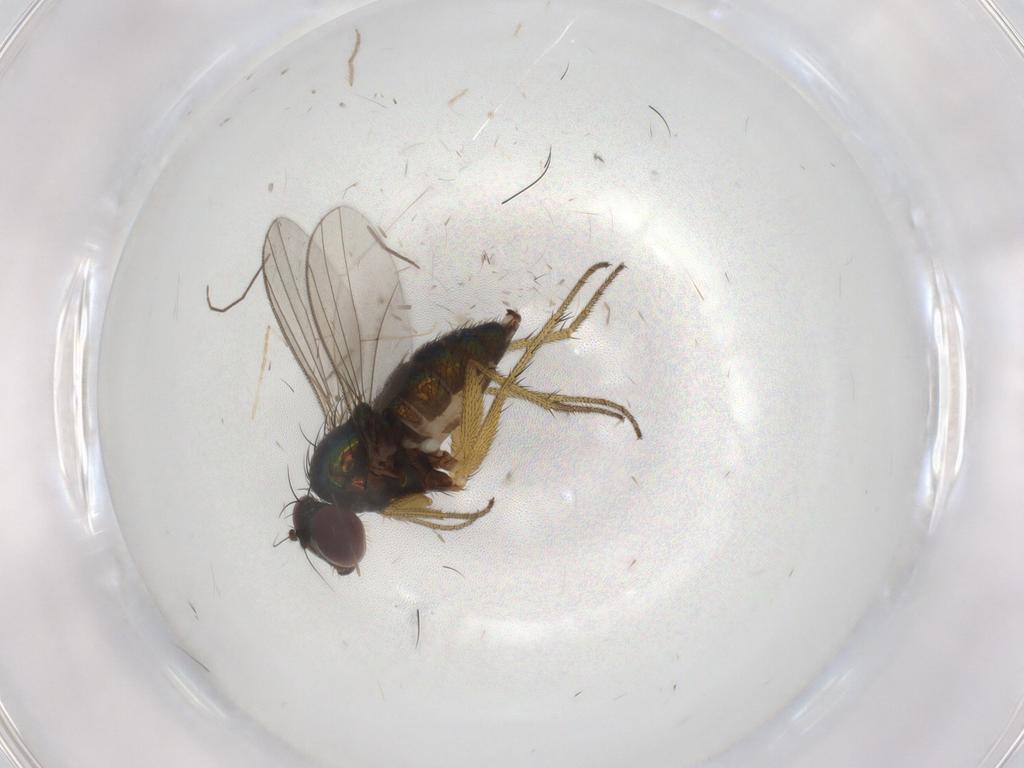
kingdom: Animalia
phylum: Arthropoda
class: Insecta
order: Diptera
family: Dolichopodidae
